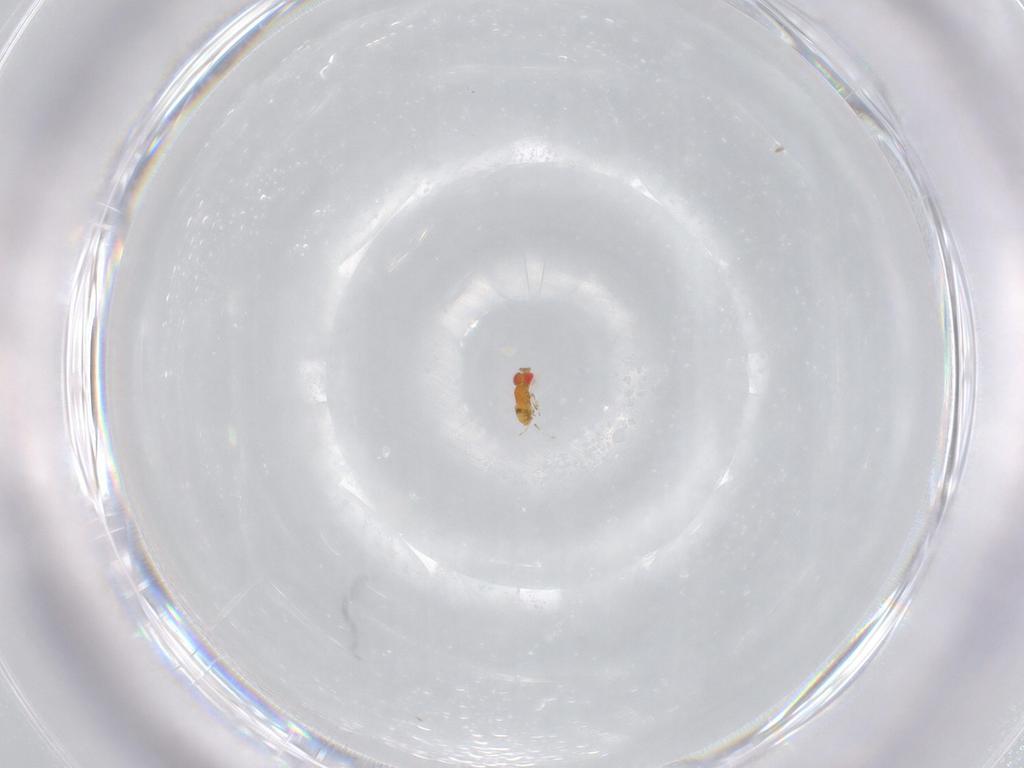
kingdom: Animalia
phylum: Arthropoda
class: Insecta
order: Hymenoptera
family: Trichogrammatidae
